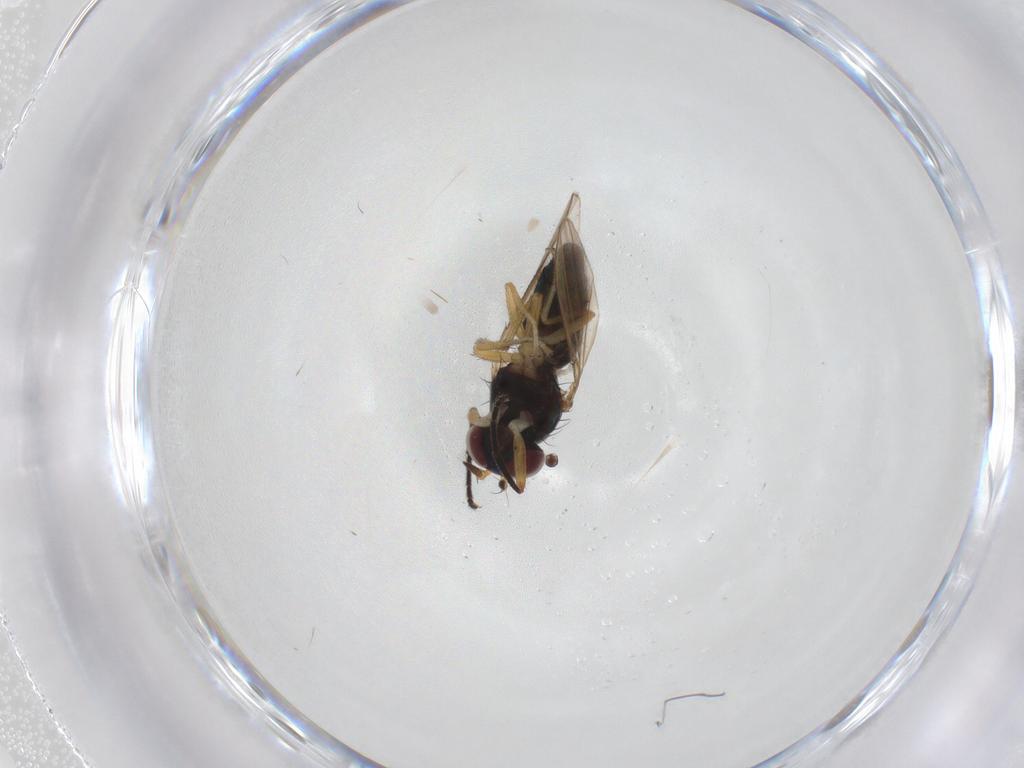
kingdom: Animalia
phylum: Arthropoda
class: Insecta
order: Diptera
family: Ephydridae
